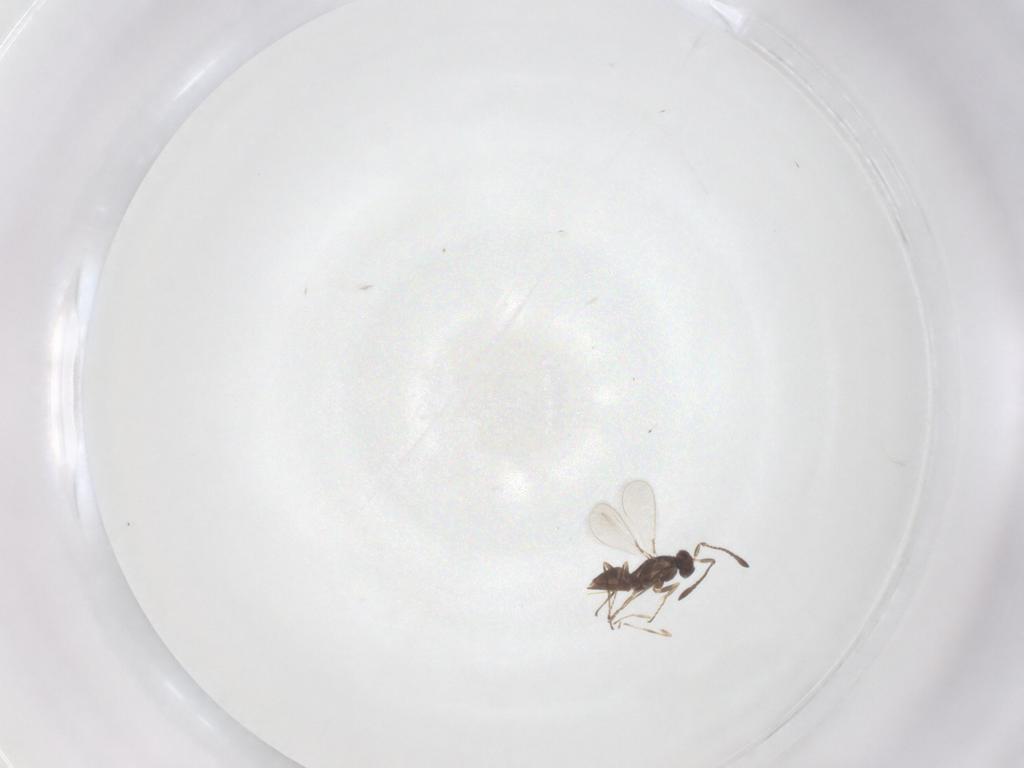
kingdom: Animalia
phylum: Arthropoda
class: Insecta
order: Hymenoptera
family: Mymaridae
